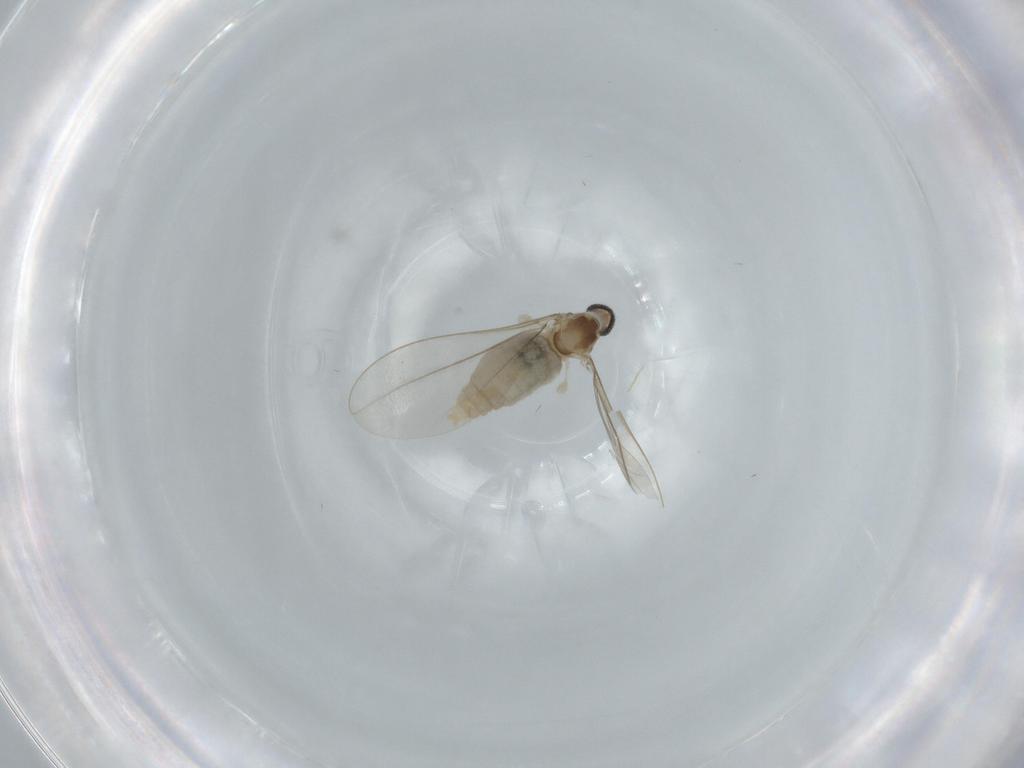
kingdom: Animalia
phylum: Arthropoda
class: Insecta
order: Diptera
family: Cecidomyiidae
